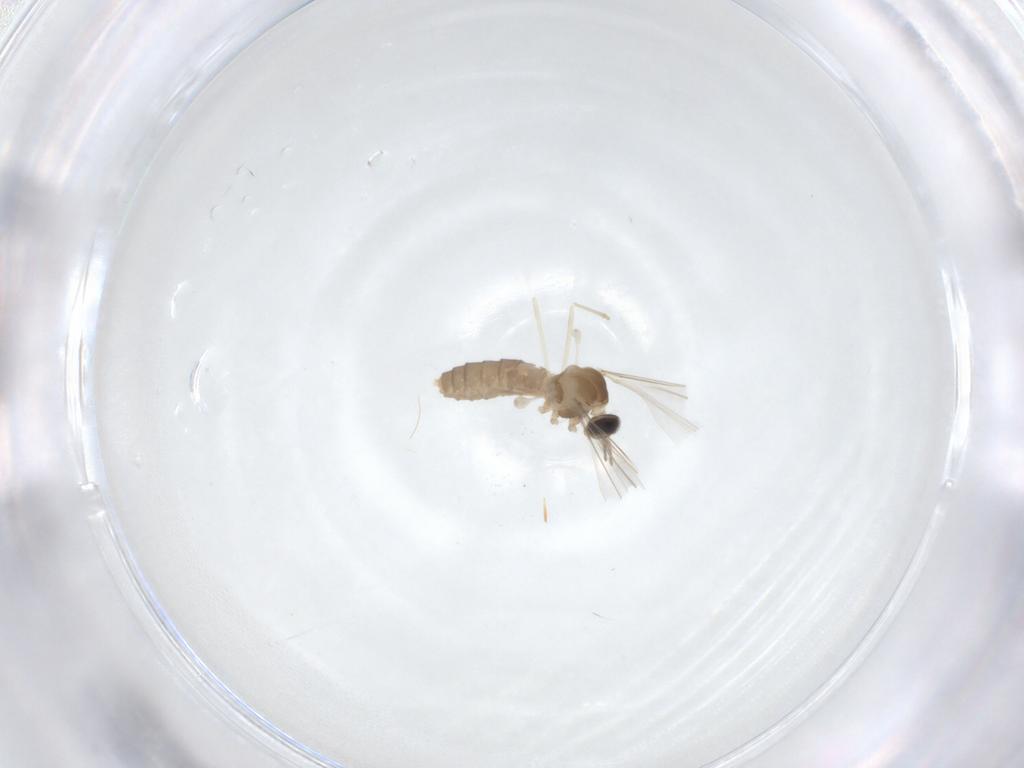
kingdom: Animalia
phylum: Arthropoda
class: Insecta
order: Diptera
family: Cecidomyiidae
